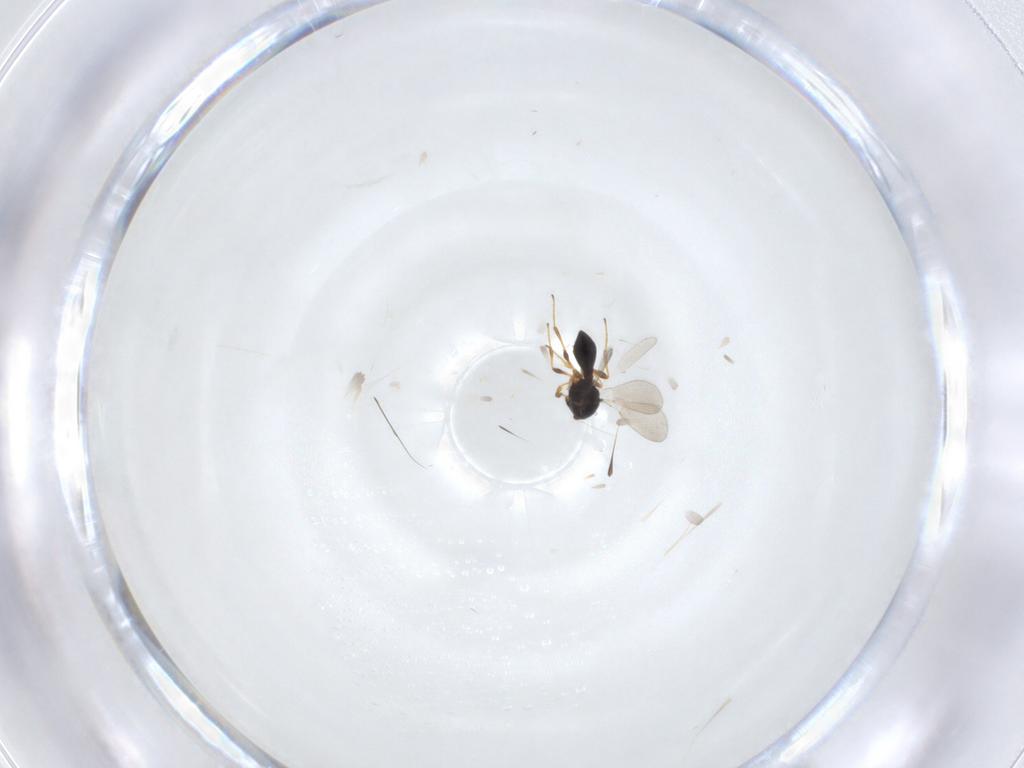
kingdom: Animalia
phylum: Arthropoda
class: Insecta
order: Hymenoptera
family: Platygastridae
